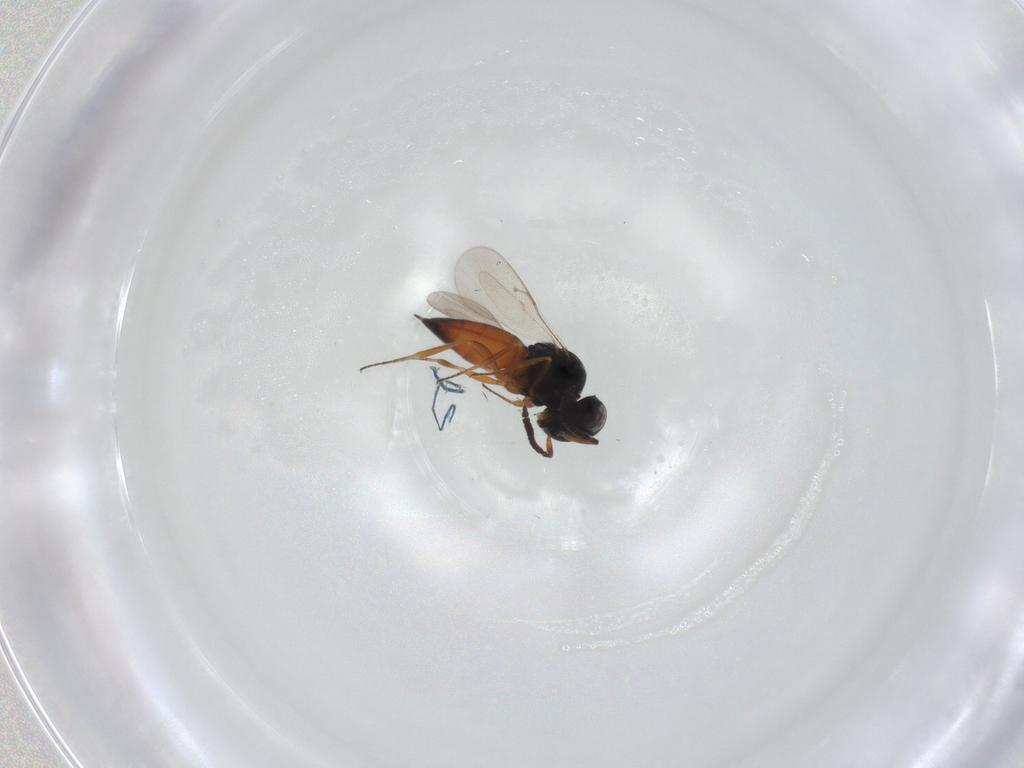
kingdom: Animalia
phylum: Arthropoda
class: Insecta
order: Hymenoptera
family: Scelionidae
